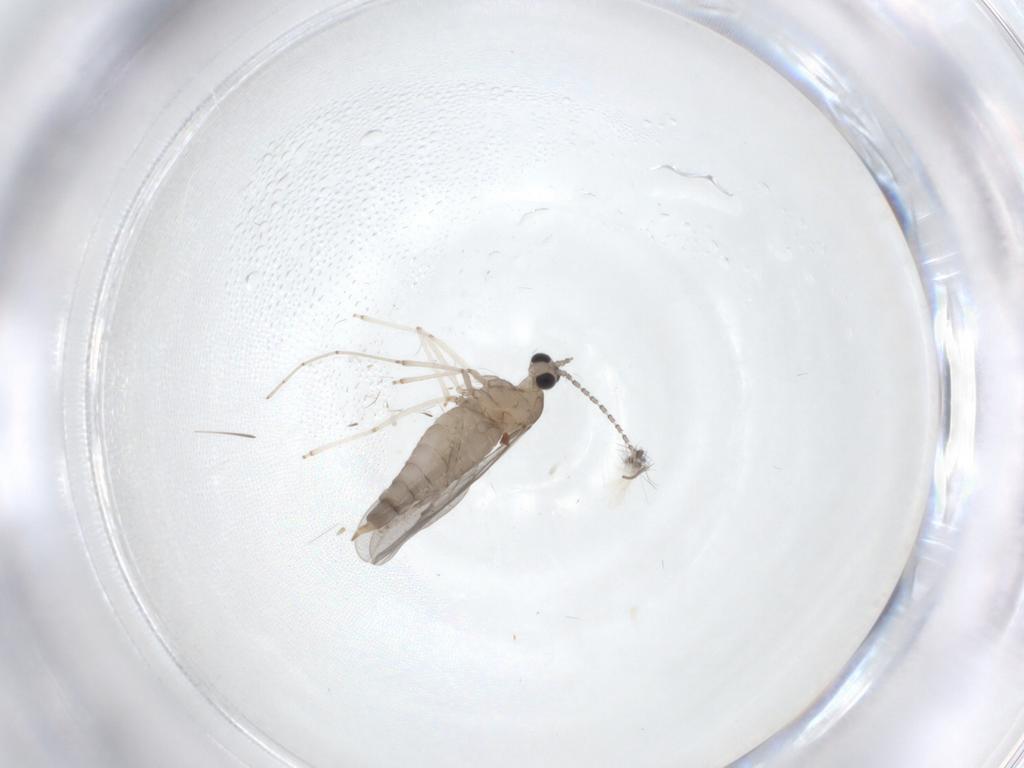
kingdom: Animalia
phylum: Arthropoda
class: Insecta
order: Diptera
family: Chironomidae
